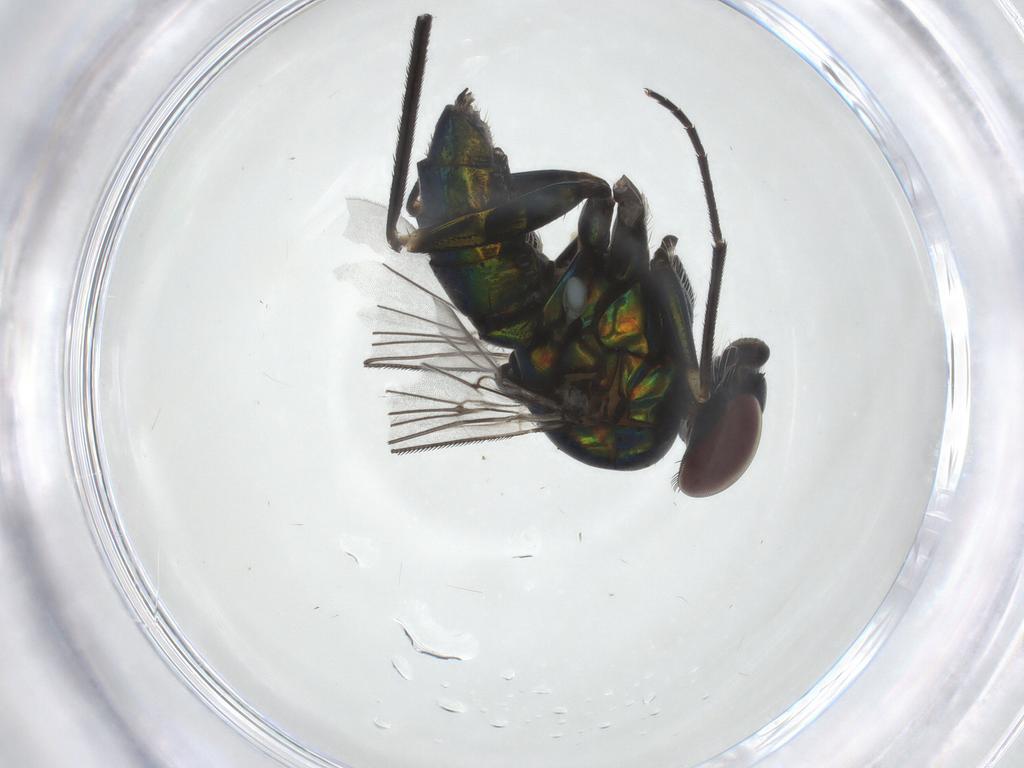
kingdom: Animalia
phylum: Arthropoda
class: Insecta
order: Diptera
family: Dolichopodidae
